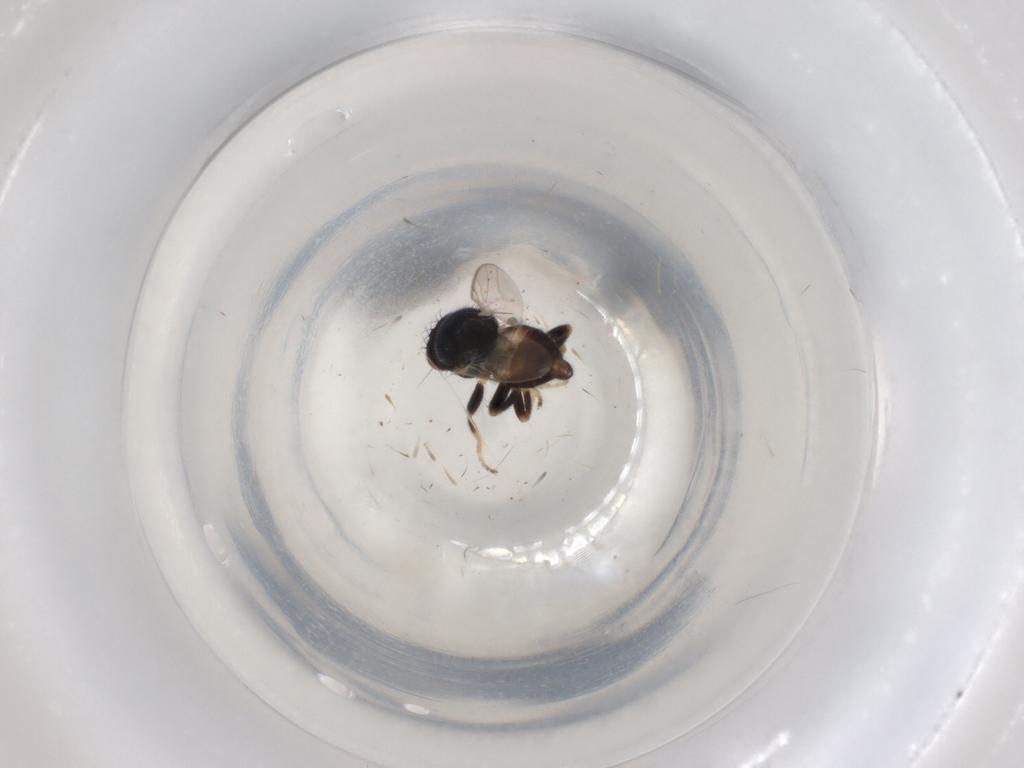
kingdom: Animalia
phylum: Arthropoda
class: Insecta
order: Diptera
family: Chloropidae
